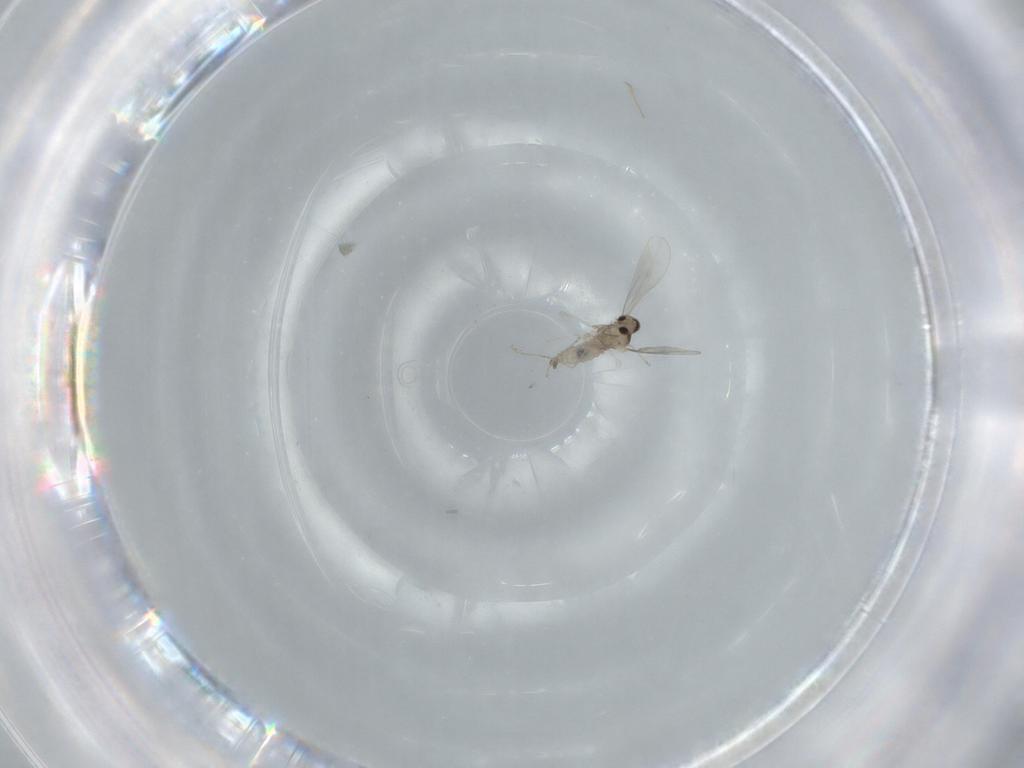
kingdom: Animalia
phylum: Arthropoda
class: Insecta
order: Diptera
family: Cecidomyiidae
